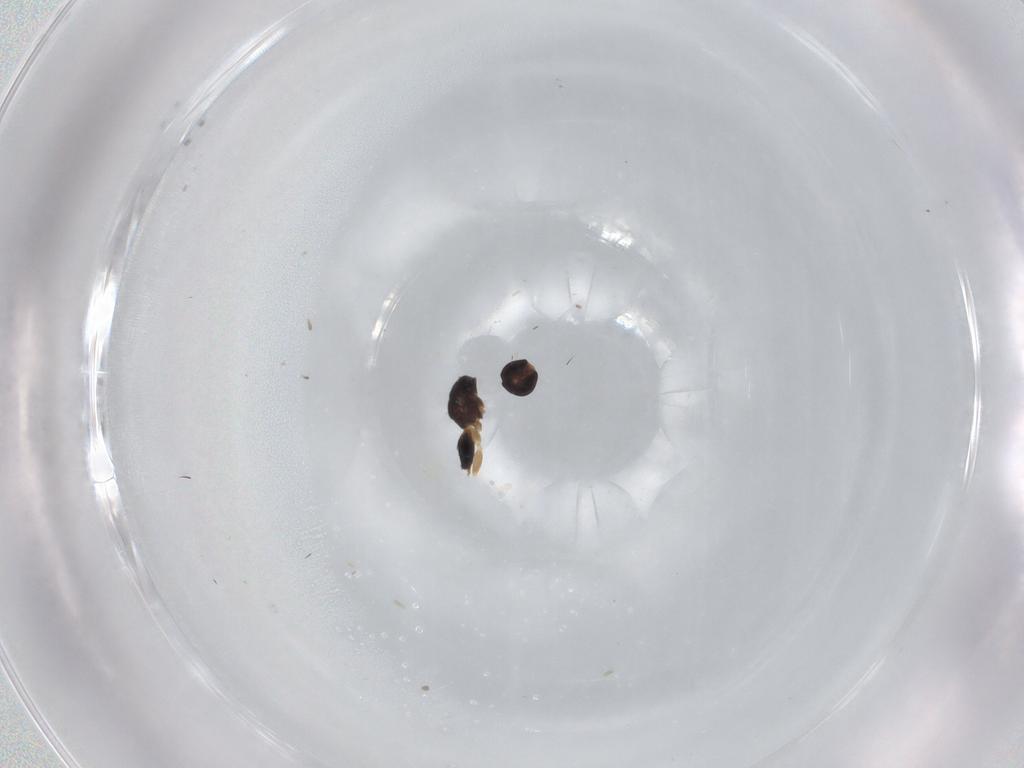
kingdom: Animalia
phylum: Arthropoda
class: Insecta
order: Hymenoptera
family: Chalcididae
